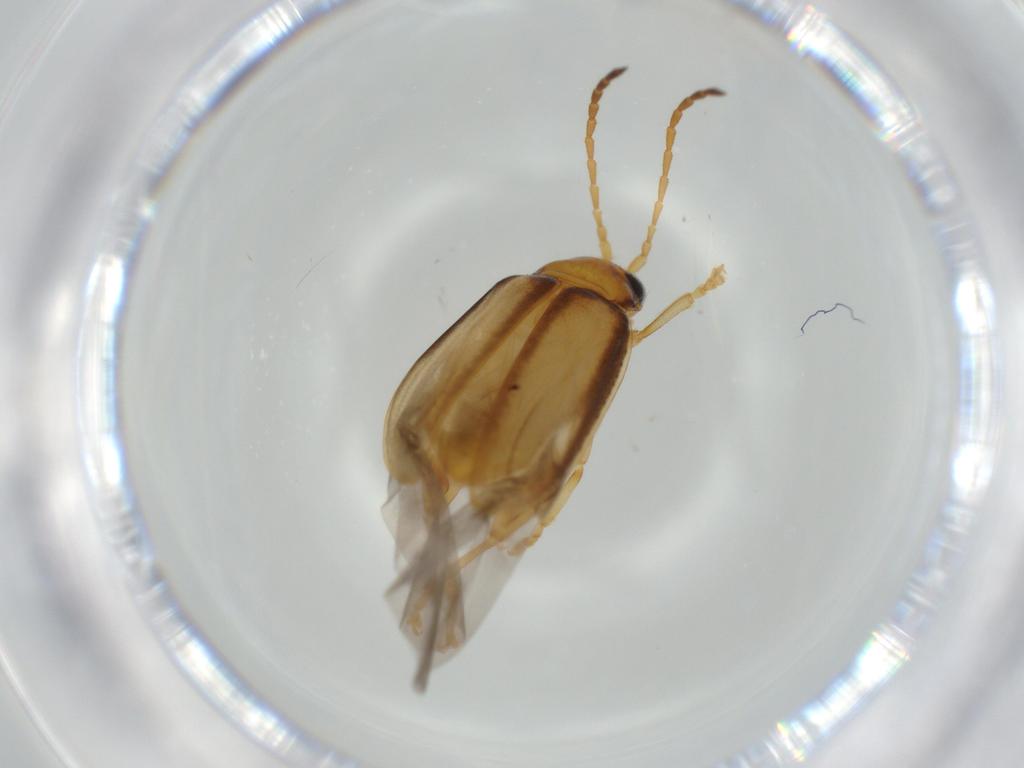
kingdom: Animalia
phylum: Arthropoda
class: Insecta
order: Coleoptera
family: Chrysomelidae
